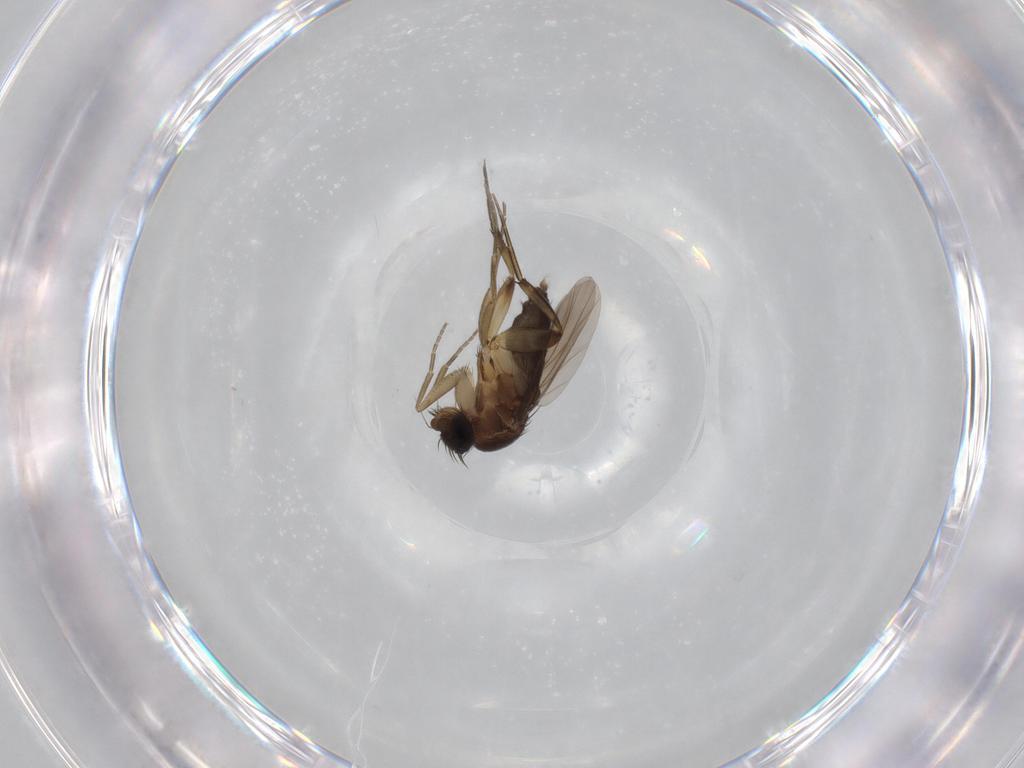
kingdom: Animalia
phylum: Arthropoda
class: Insecta
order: Diptera
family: Phoridae
